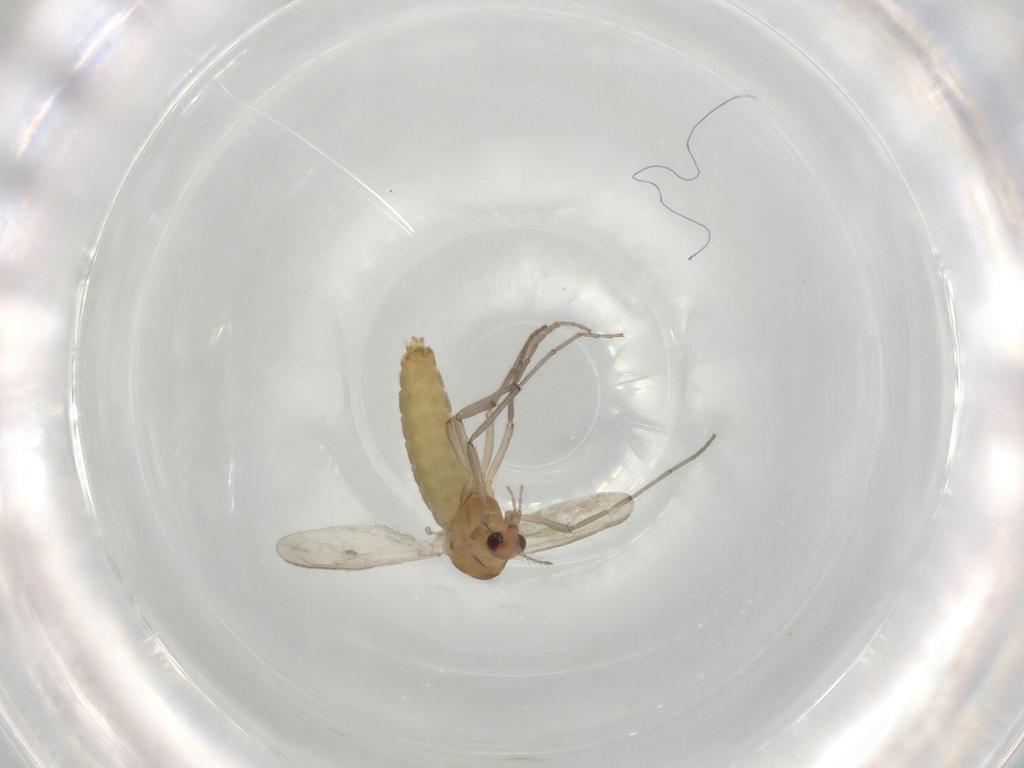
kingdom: Animalia
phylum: Arthropoda
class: Insecta
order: Diptera
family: Chironomidae
